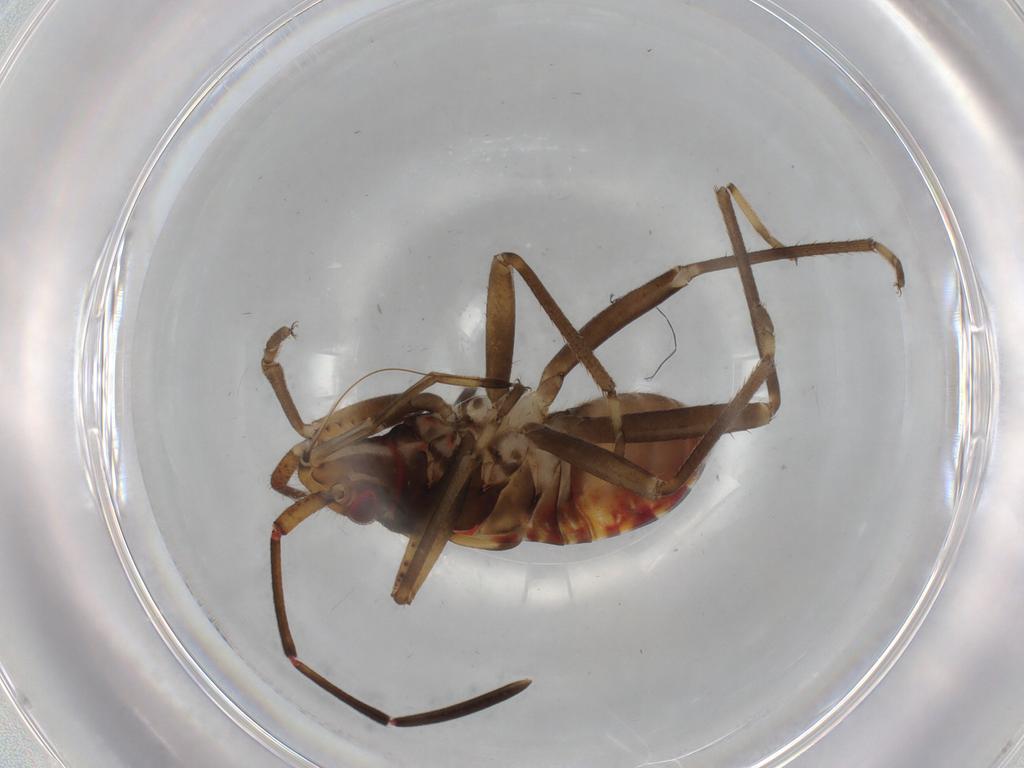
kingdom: Animalia
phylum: Arthropoda
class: Insecta
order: Hemiptera
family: Rhyparochromidae
